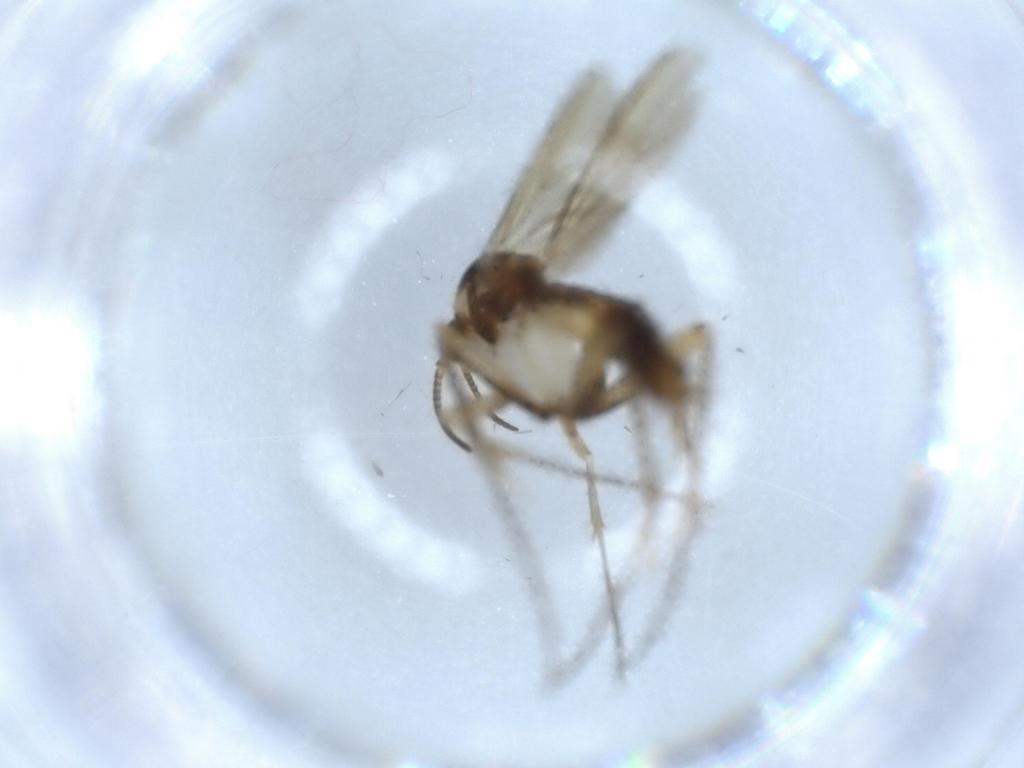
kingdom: Animalia
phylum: Arthropoda
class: Insecta
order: Diptera
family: Mycetophilidae
